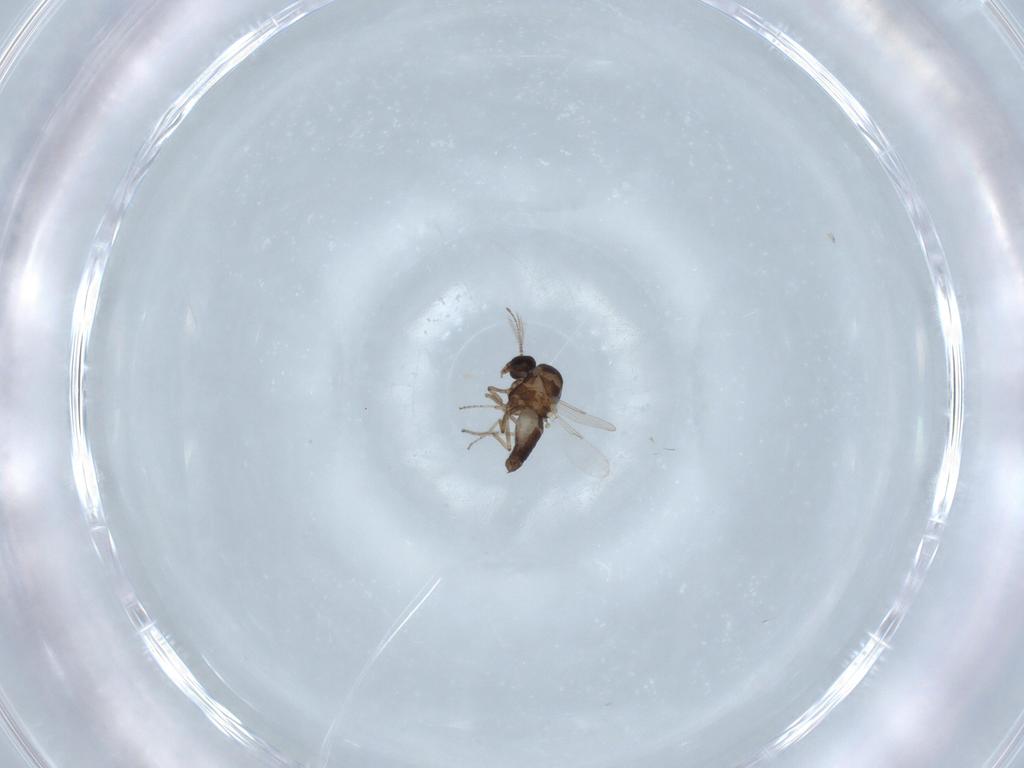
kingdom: Animalia
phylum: Arthropoda
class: Insecta
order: Diptera
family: Ceratopogonidae
